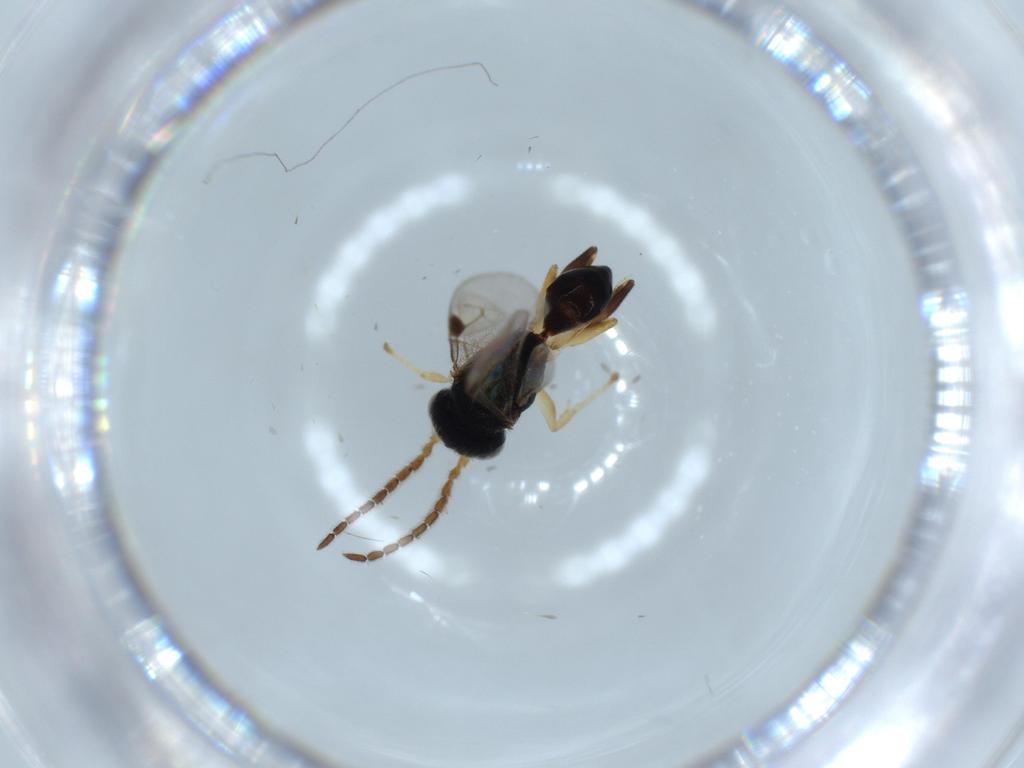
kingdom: Animalia
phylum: Arthropoda
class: Insecta
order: Hymenoptera
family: Dryinidae
